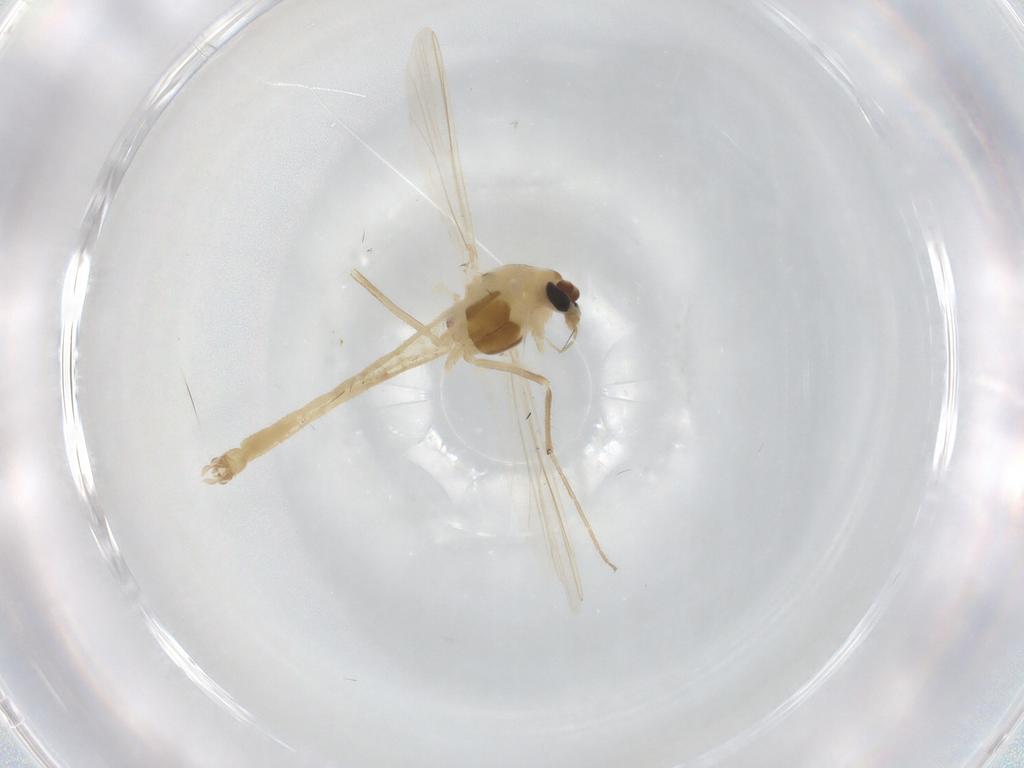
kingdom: Animalia
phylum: Arthropoda
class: Insecta
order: Diptera
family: Chironomidae
